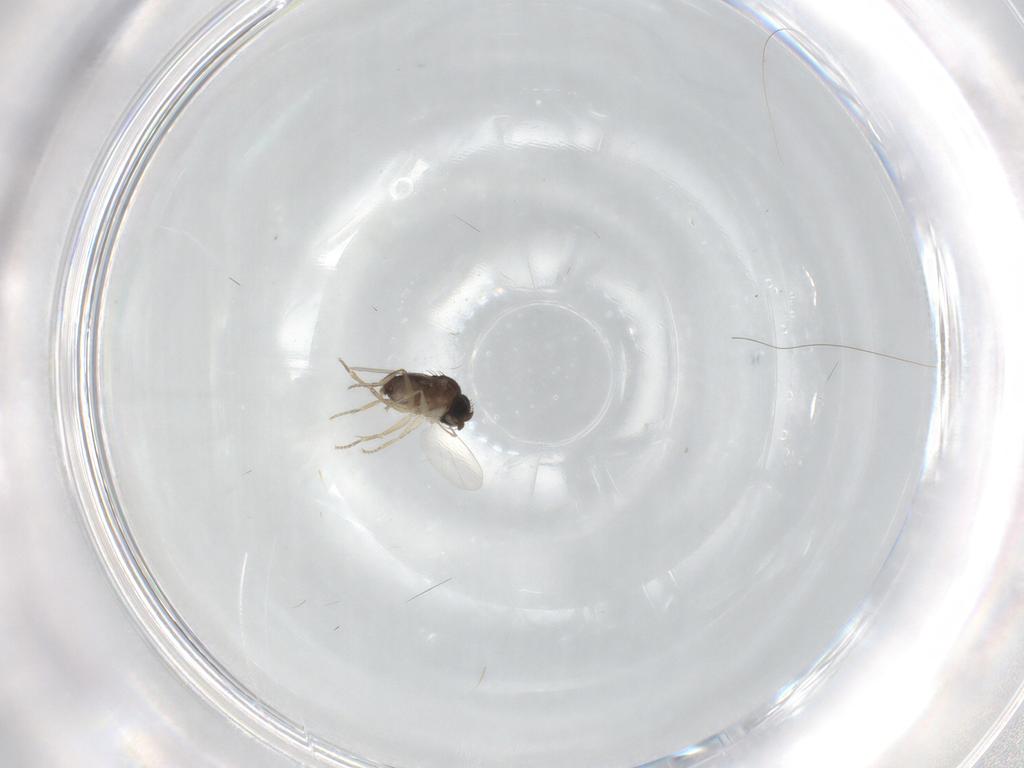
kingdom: Animalia
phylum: Arthropoda
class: Insecta
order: Diptera
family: Phoridae
